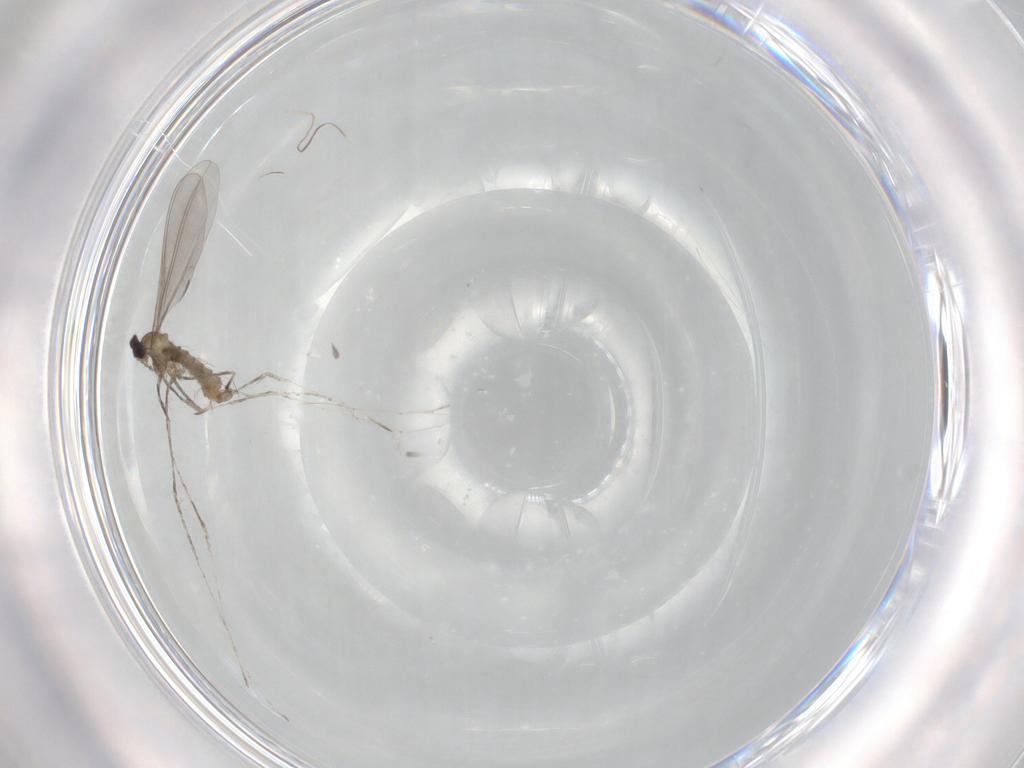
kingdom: Animalia
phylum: Arthropoda
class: Insecta
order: Diptera
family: Cecidomyiidae
